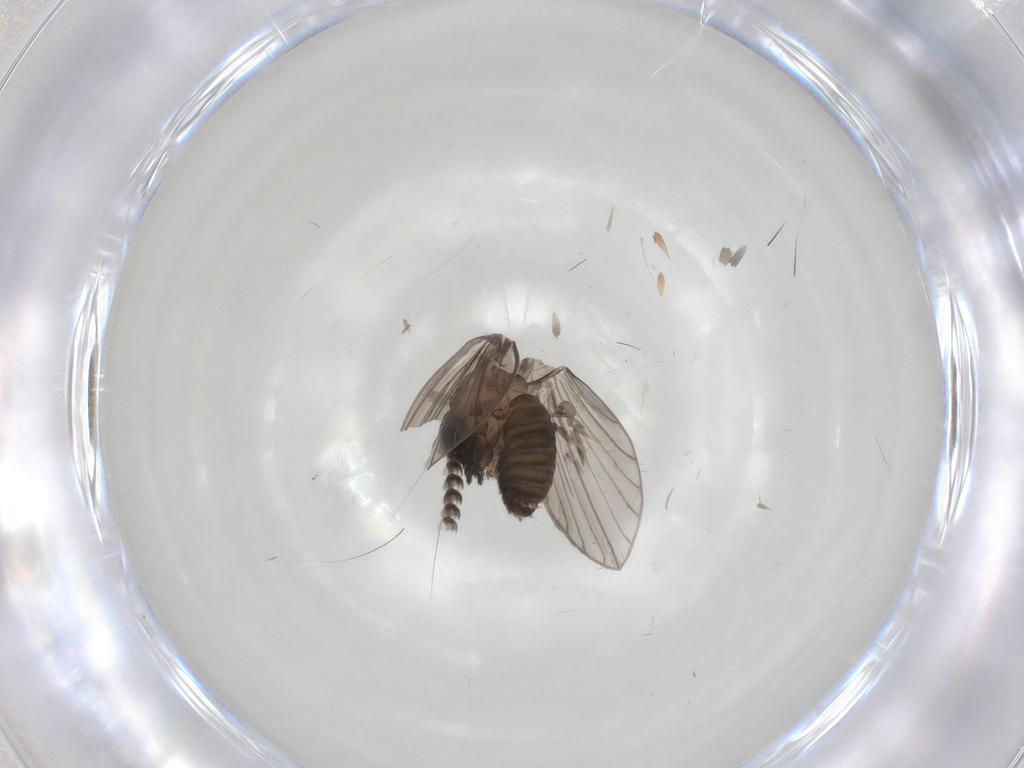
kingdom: Animalia
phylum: Arthropoda
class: Insecta
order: Diptera
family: Psychodidae
